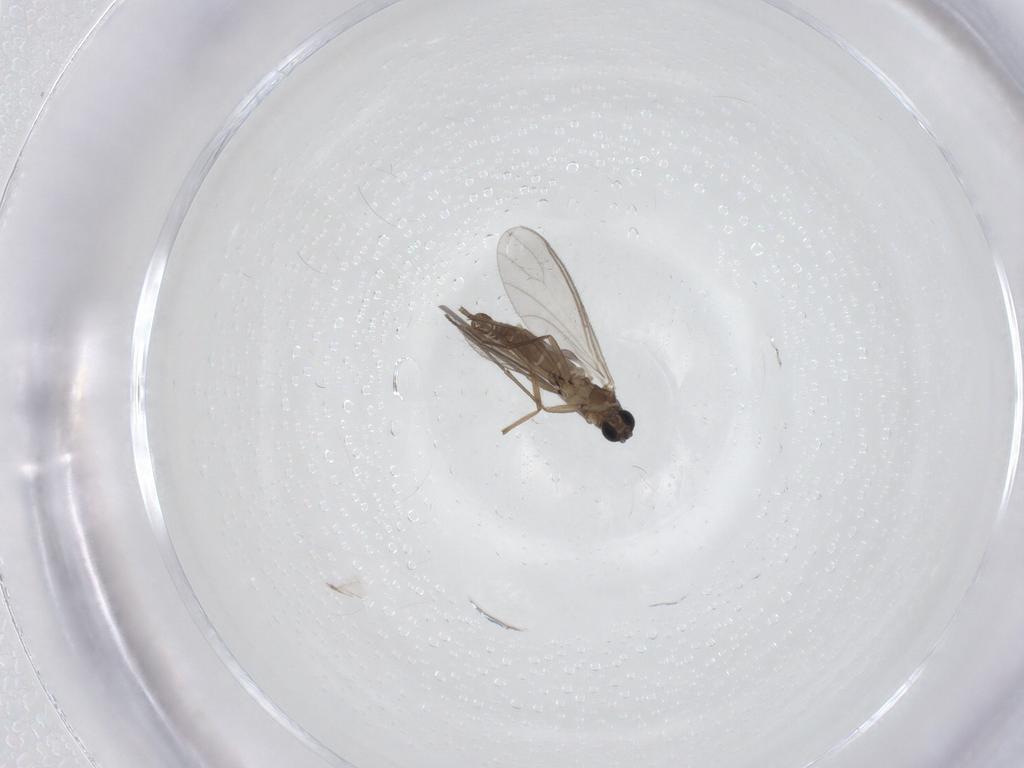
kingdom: Animalia
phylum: Arthropoda
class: Insecta
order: Diptera
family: Sciaridae
